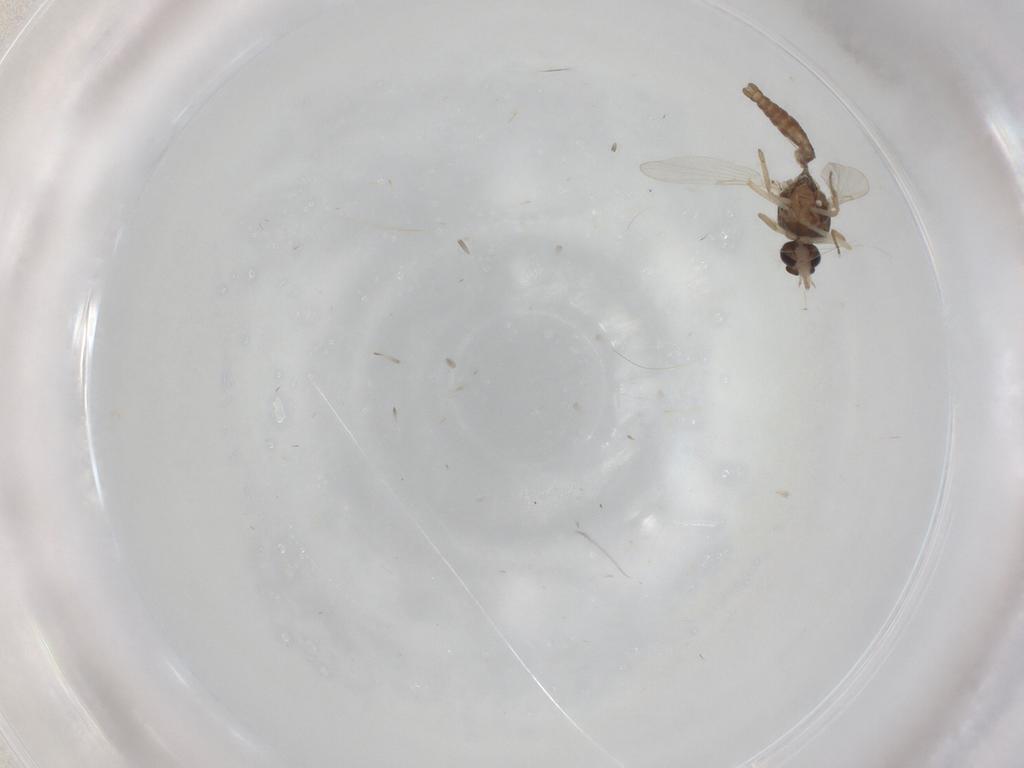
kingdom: Animalia
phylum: Arthropoda
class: Insecta
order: Diptera
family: Ceratopogonidae
